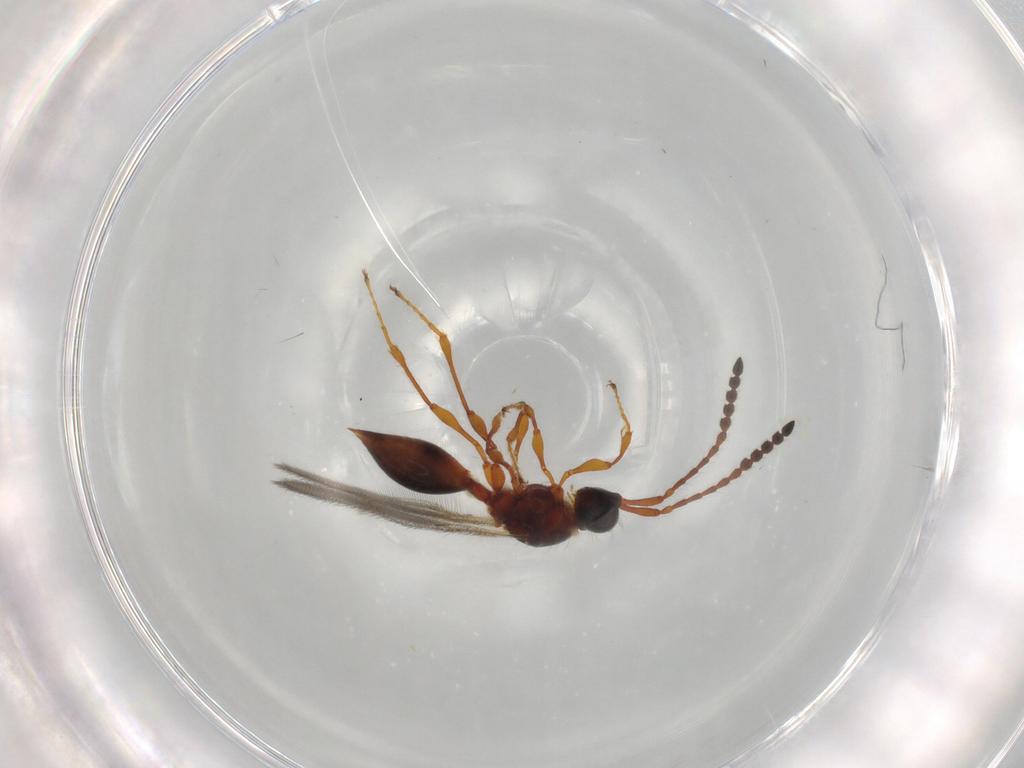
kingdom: Animalia
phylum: Arthropoda
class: Insecta
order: Hymenoptera
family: Diapriidae
